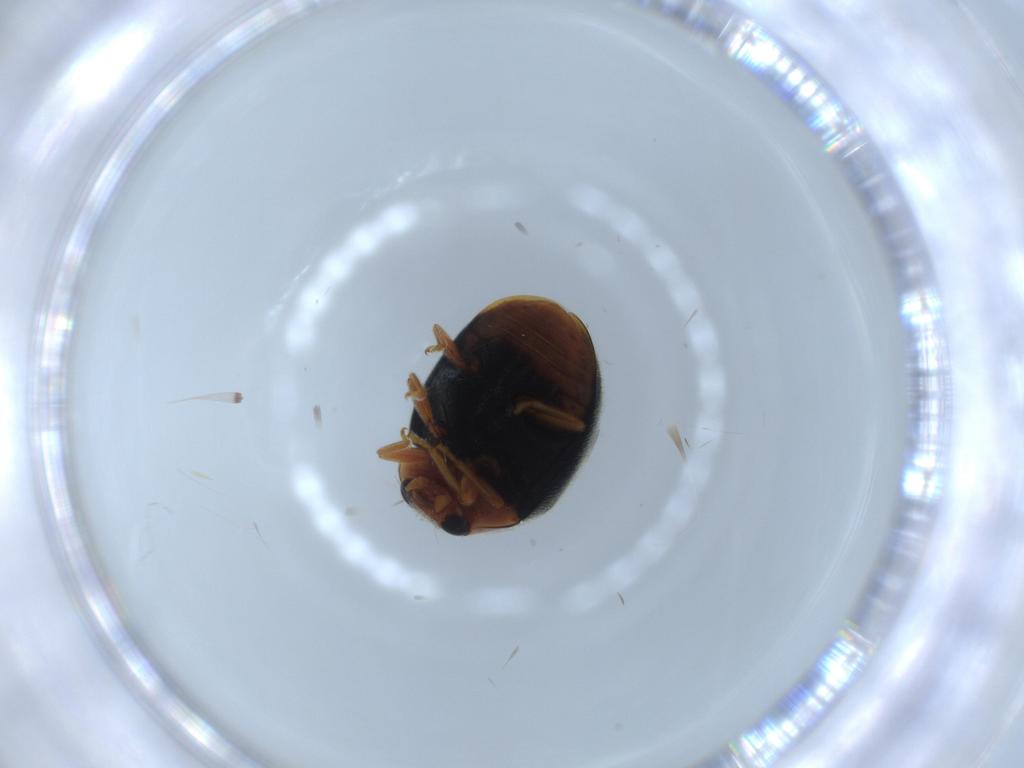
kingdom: Animalia
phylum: Arthropoda
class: Insecta
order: Coleoptera
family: Coccinellidae
